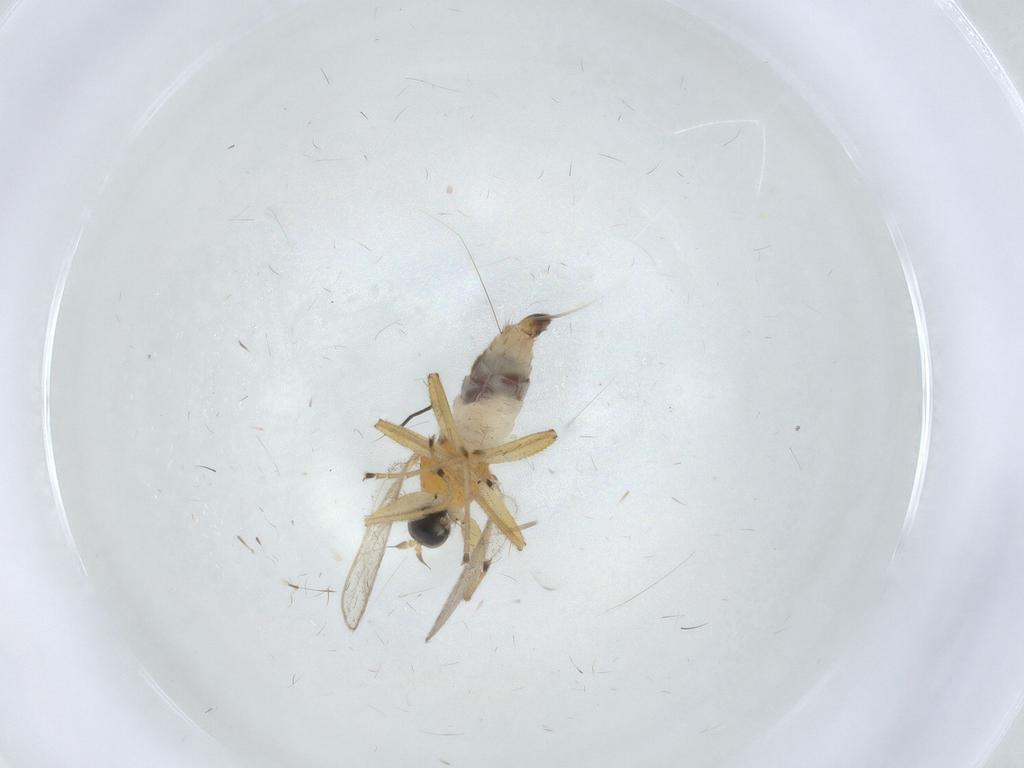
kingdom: Animalia
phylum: Arthropoda
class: Insecta
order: Diptera
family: Hybotidae
